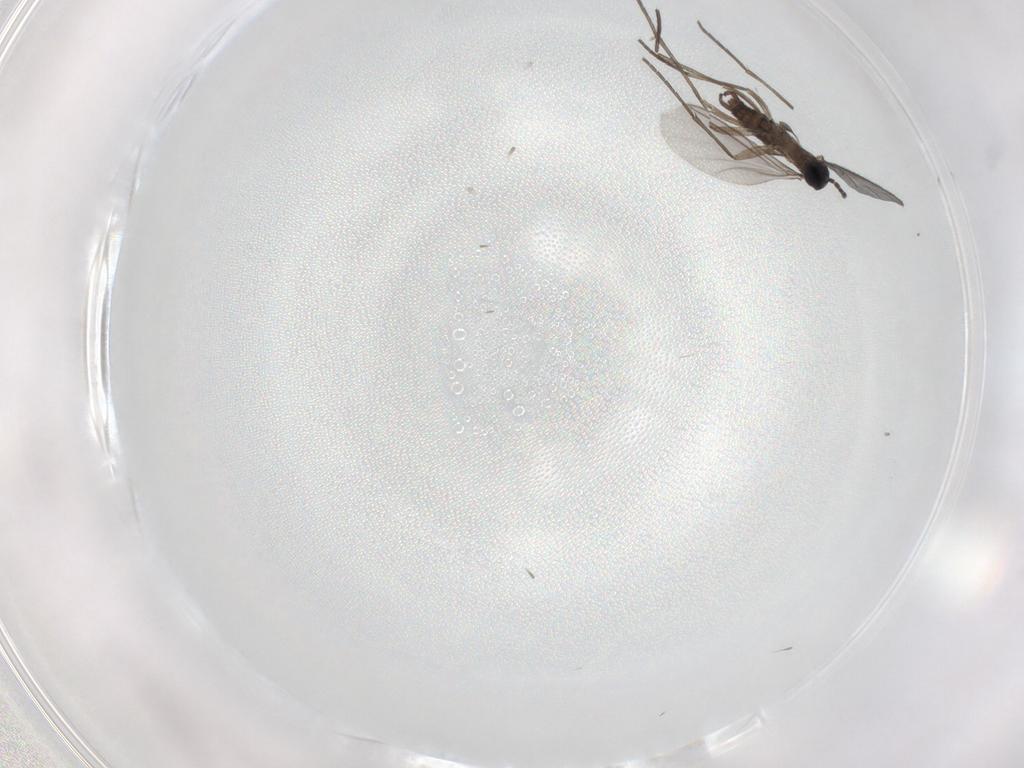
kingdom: Animalia
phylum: Arthropoda
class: Insecta
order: Diptera
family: Sciaridae
